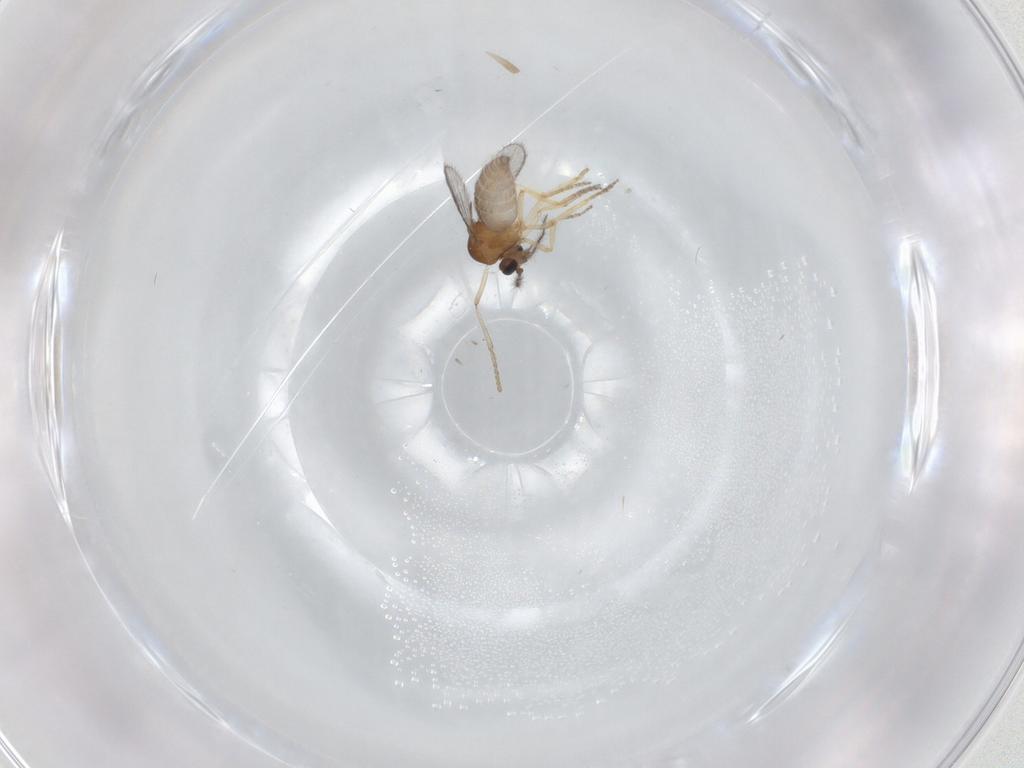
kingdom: Animalia
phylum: Arthropoda
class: Insecta
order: Diptera
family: Ceratopogonidae
